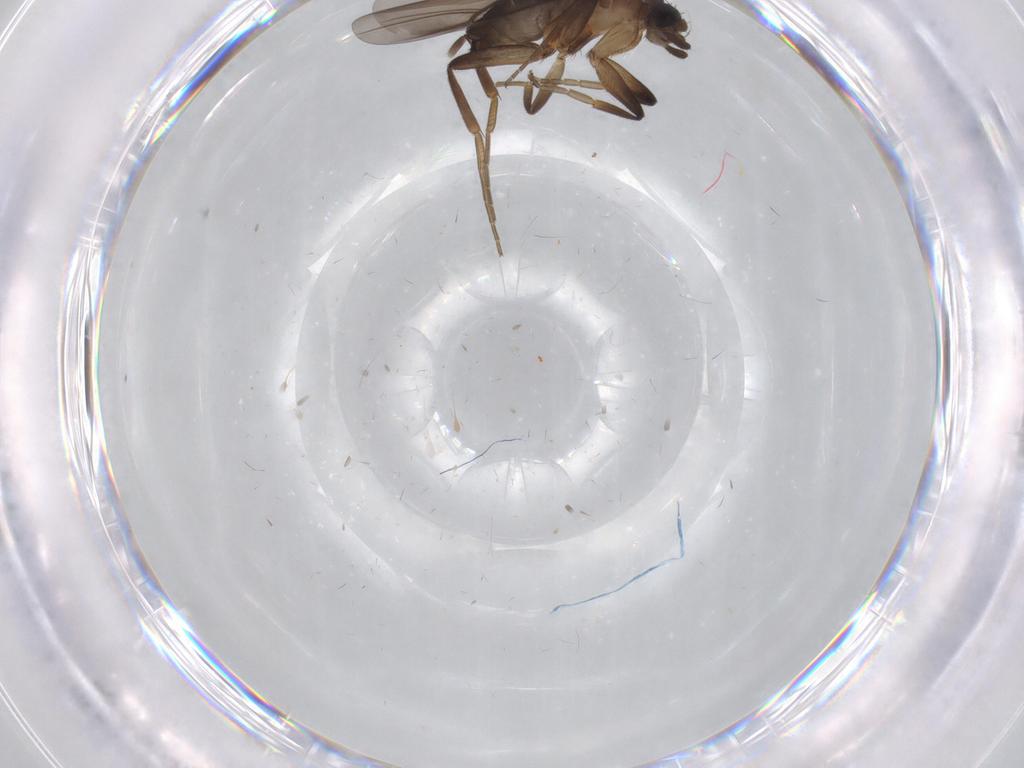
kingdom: Animalia
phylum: Arthropoda
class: Insecta
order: Diptera
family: Phoridae
